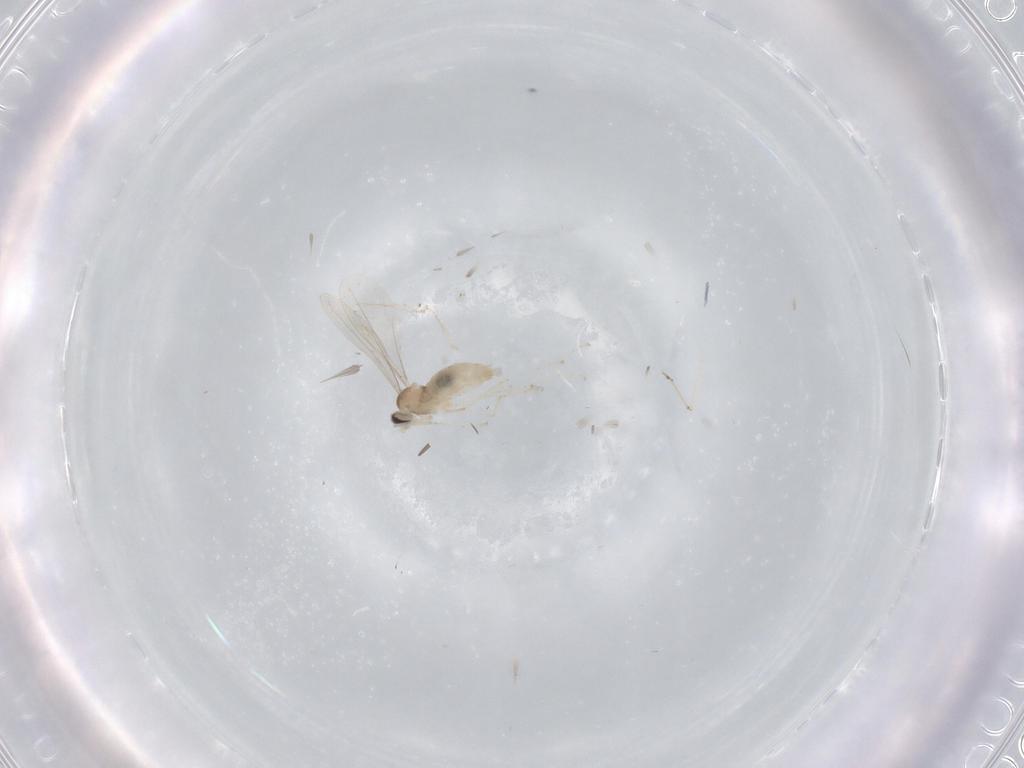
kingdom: Animalia
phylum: Arthropoda
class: Insecta
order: Diptera
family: Cecidomyiidae
